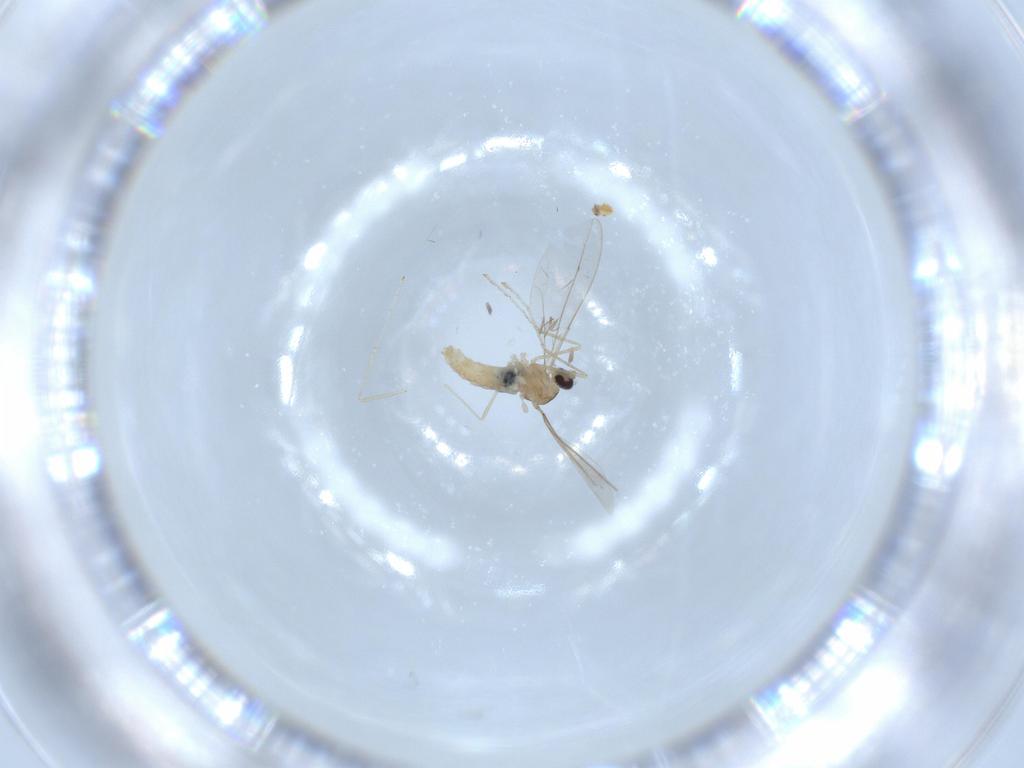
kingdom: Animalia
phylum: Arthropoda
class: Insecta
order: Diptera
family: Cecidomyiidae
